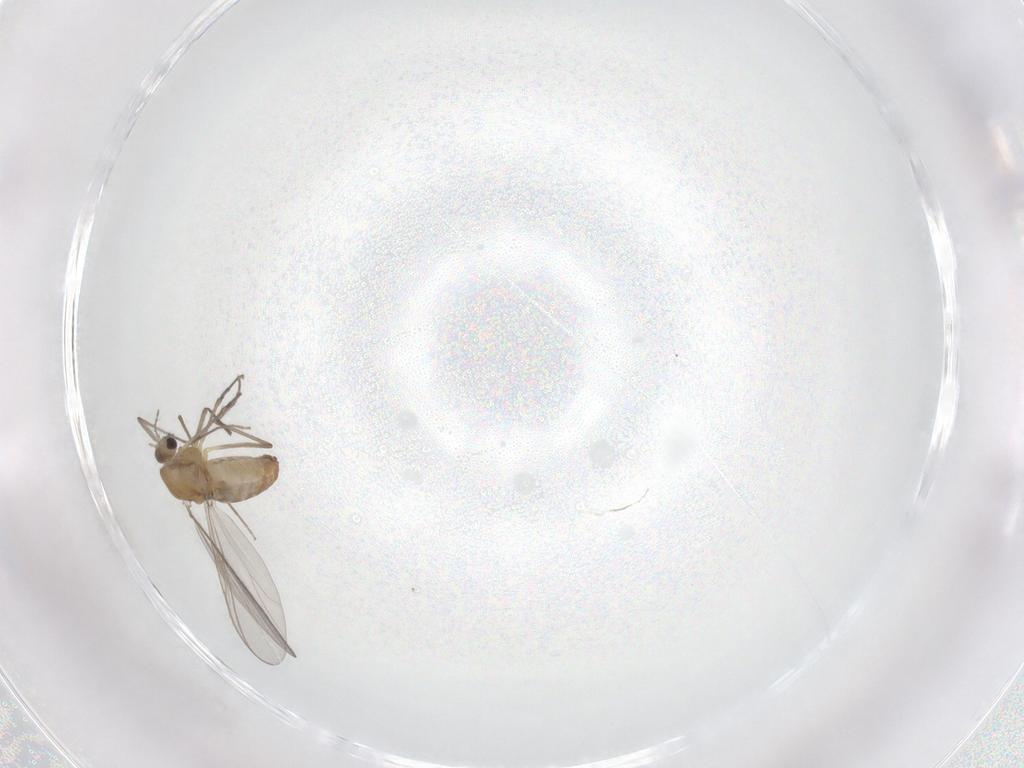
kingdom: Animalia
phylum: Arthropoda
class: Insecta
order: Diptera
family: Chironomidae
